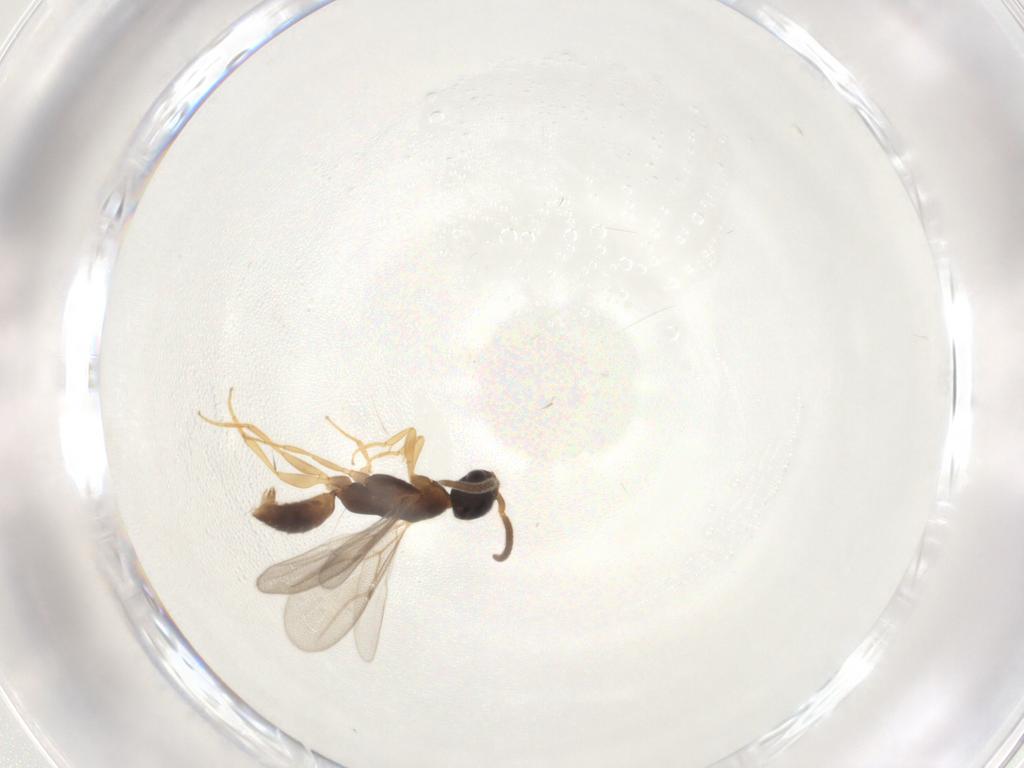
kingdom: Animalia
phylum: Arthropoda
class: Insecta
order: Hymenoptera
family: Bethylidae
